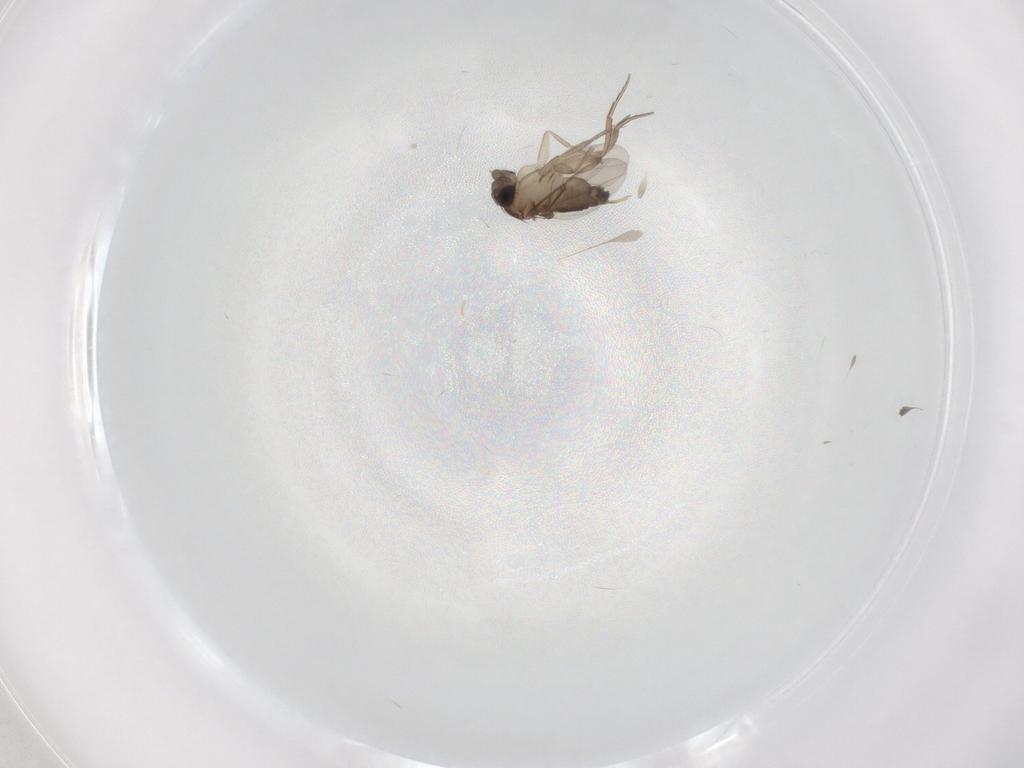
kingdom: Animalia
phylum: Arthropoda
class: Insecta
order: Diptera
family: Phoridae
